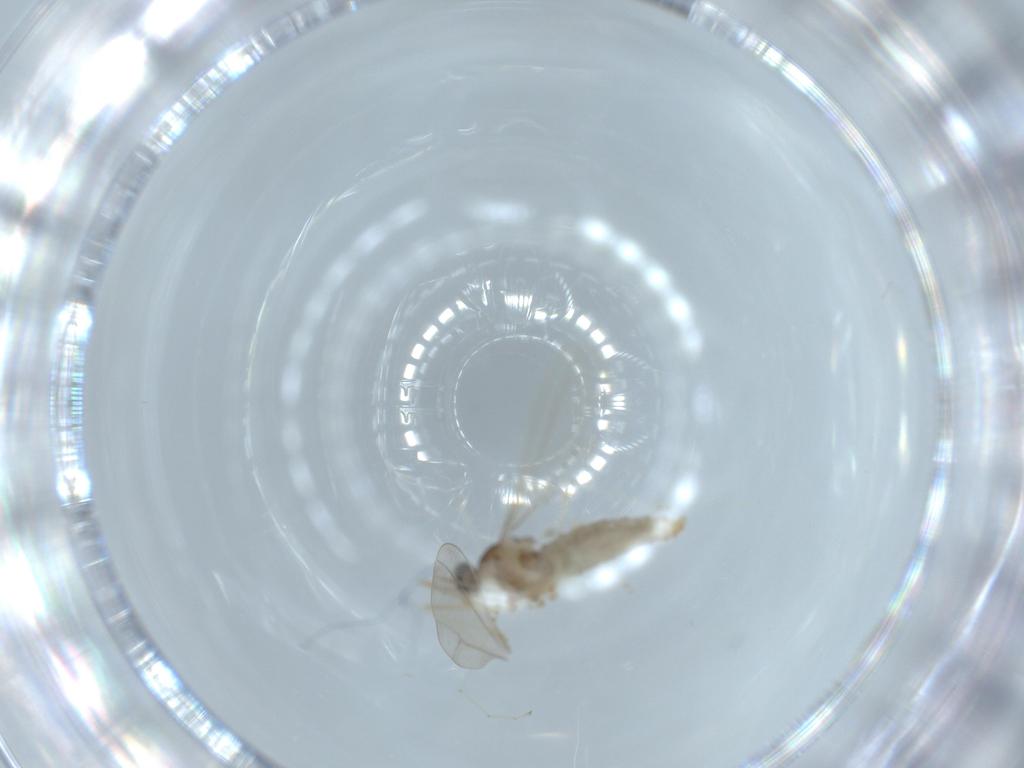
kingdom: Animalia
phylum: Arthropoda
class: Insecta
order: Diptera
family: Cecidomyiidae
